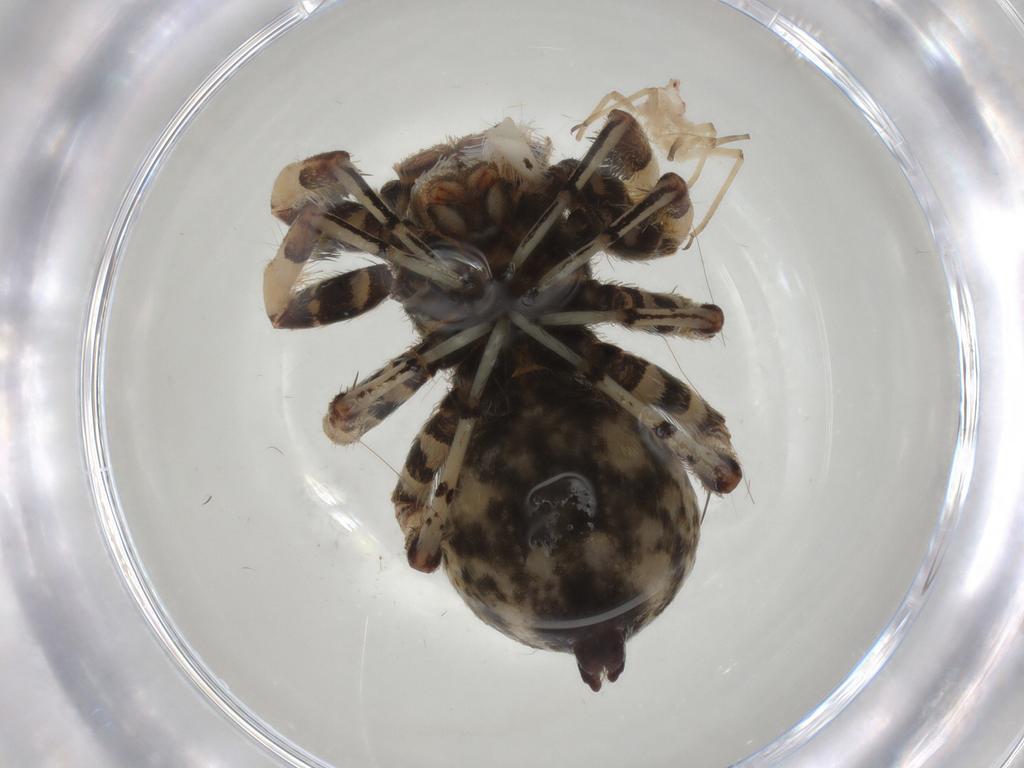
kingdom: Animalia
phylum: Arthropoda
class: Arachnida
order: Araneae
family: Salticidae
